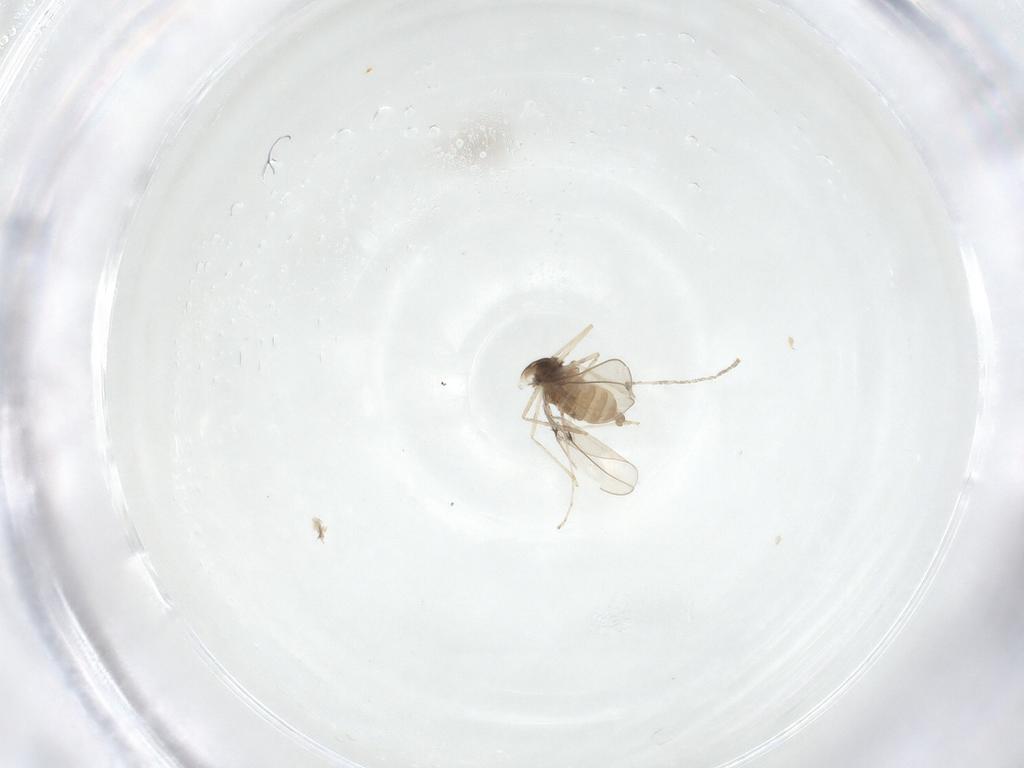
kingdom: Animalia
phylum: Arthropoda
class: Insecta
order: Diptera
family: Cecidomyiidae
